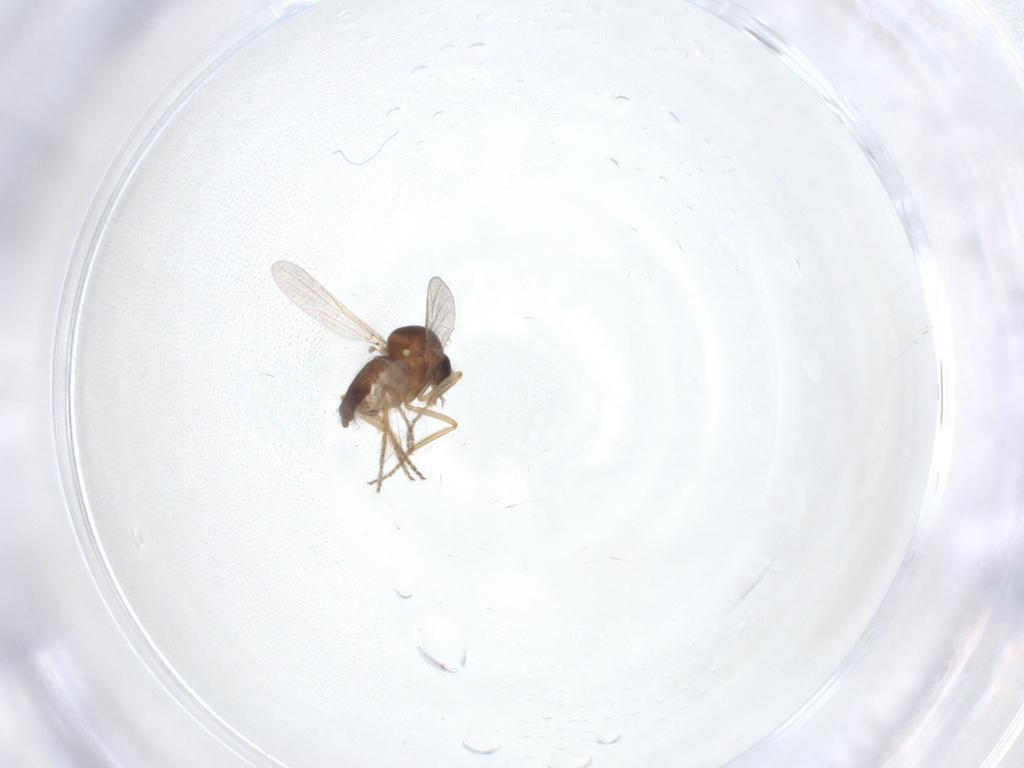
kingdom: Animalia
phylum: Arthropoda
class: Insecta
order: Diptera
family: Ceratopogonidae
